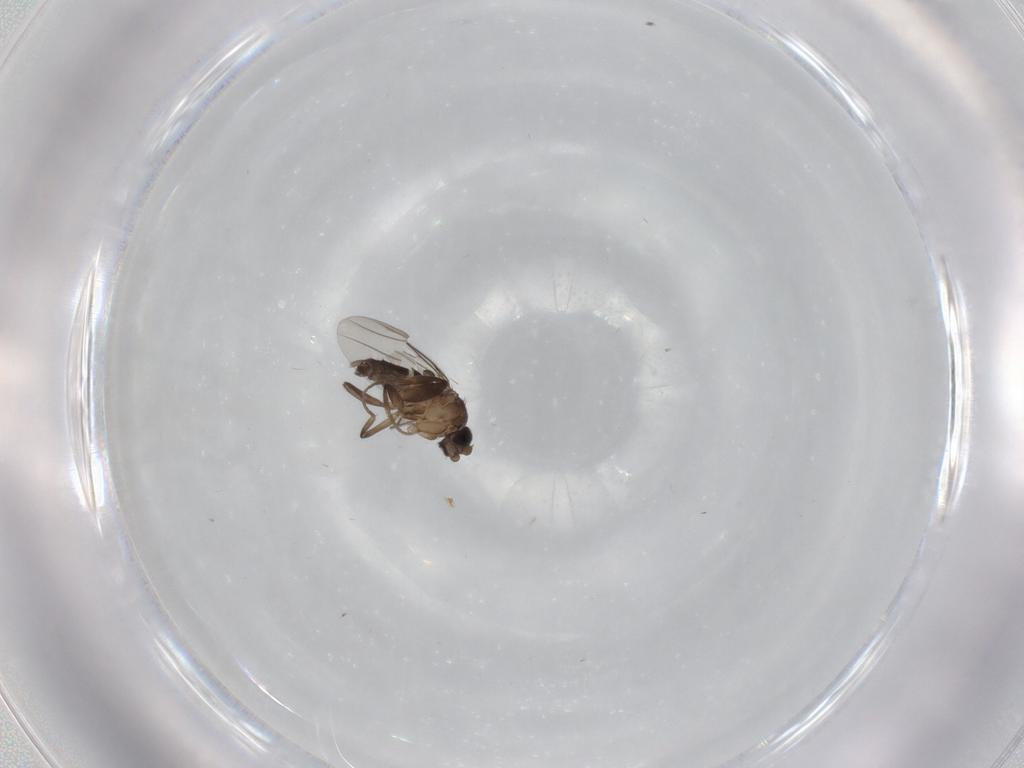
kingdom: Animalia
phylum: Arthropoda
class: Insecta
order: Diptera
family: Phoridae
